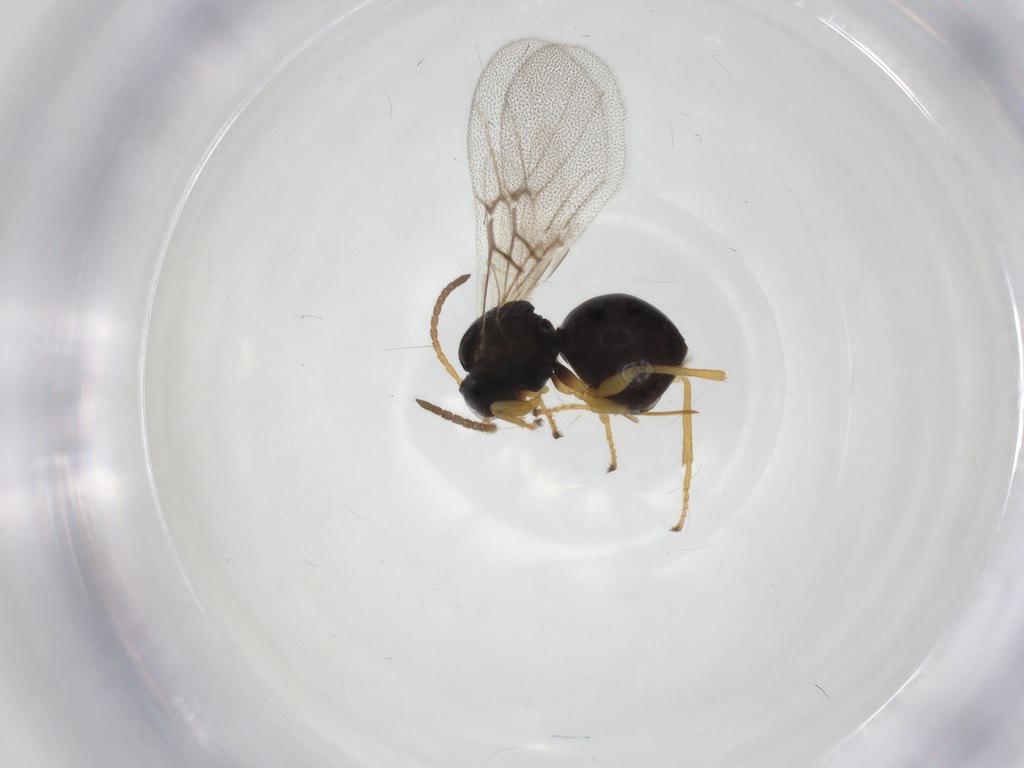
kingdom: Animalia
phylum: Arthropoda
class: Insecta
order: Hymenoptera
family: Cynipidae
